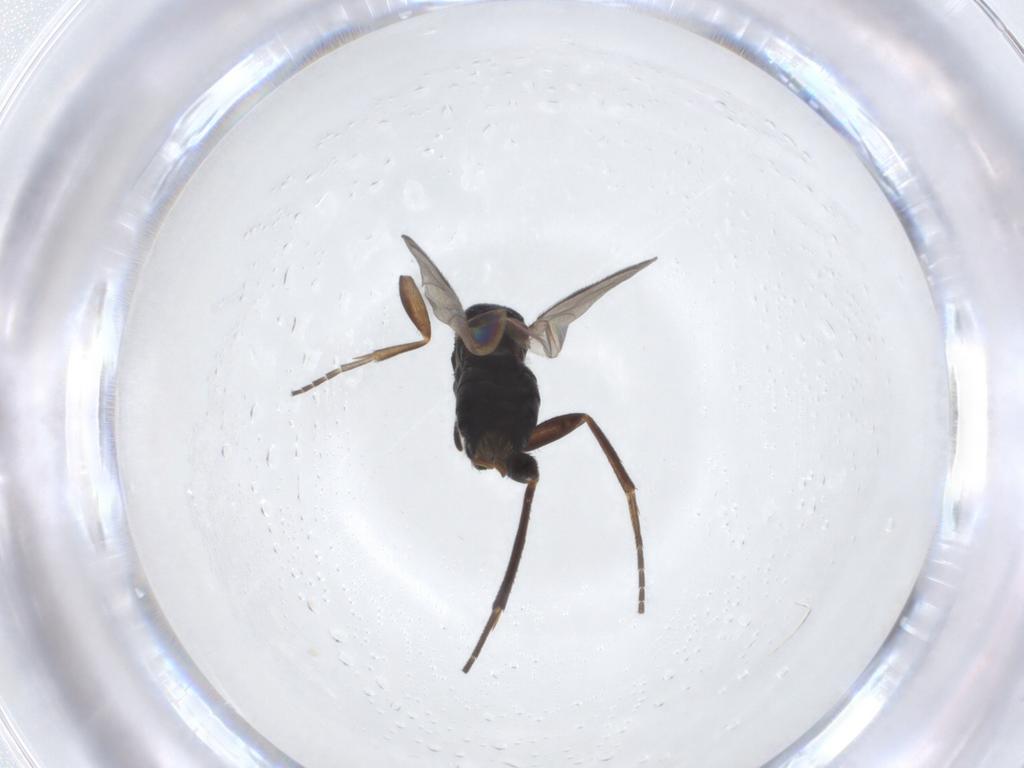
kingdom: Animalia
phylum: Arthropoda
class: Insecta
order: Diptera
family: Mycetophilidae
